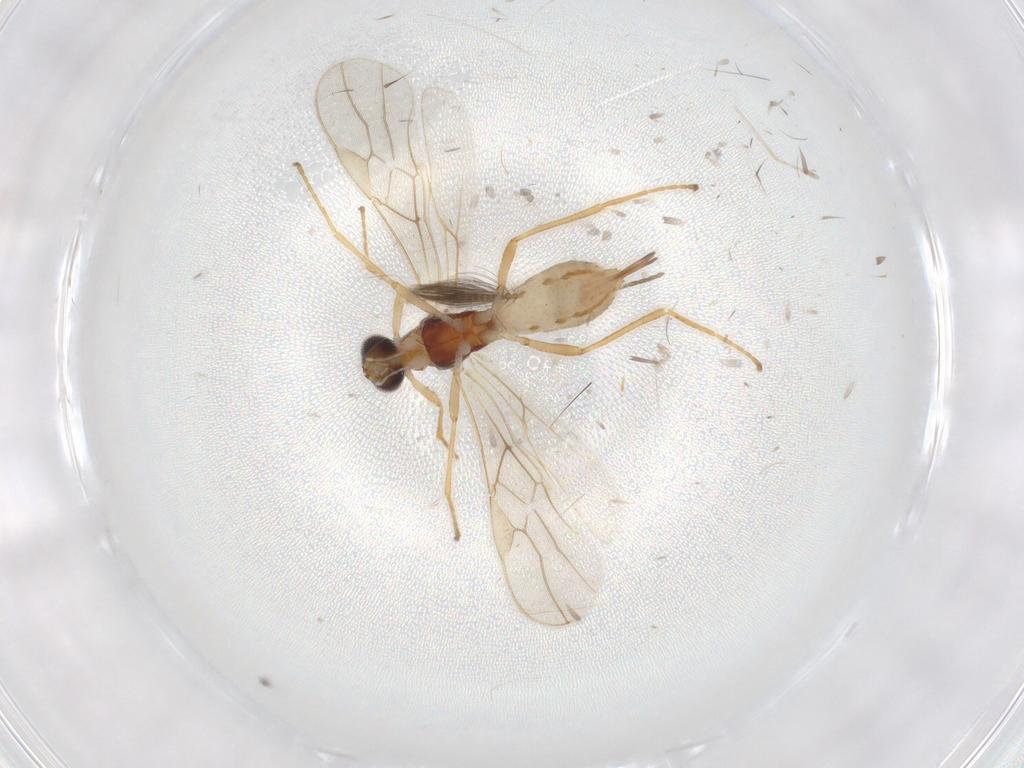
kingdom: Animalia
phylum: Arthropoda
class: Insecta
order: Hymenoptera
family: Braconidae
